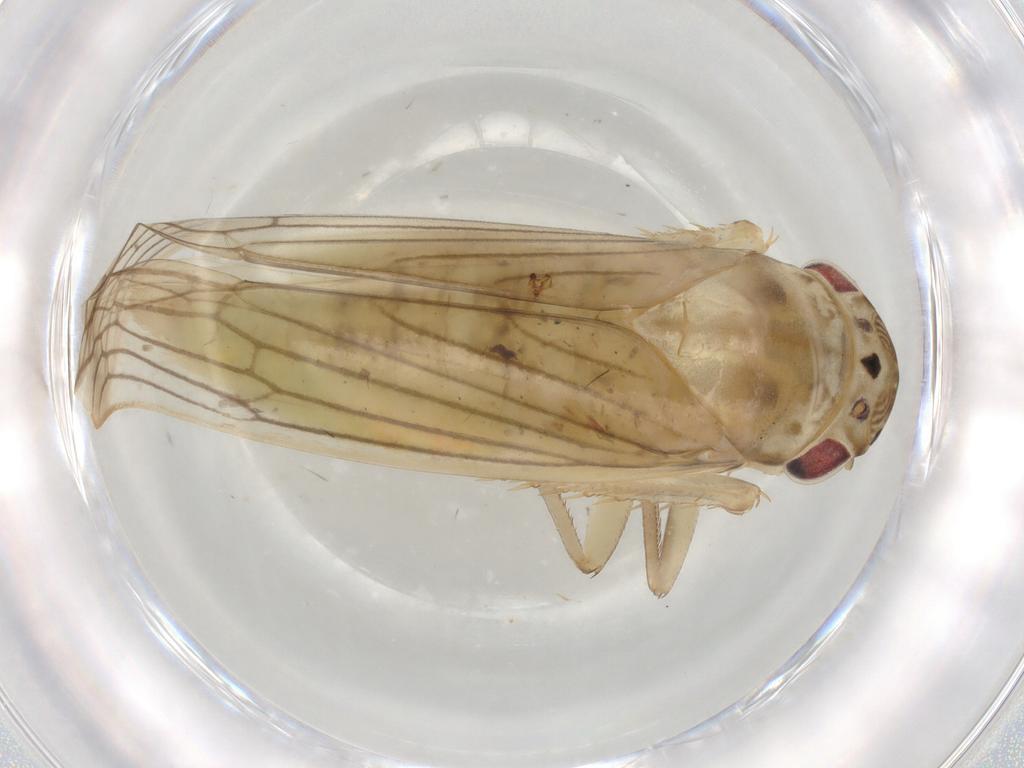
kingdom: Animalia
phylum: Arthropoda
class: Insecta
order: Hemiptera
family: Cicadellidae
